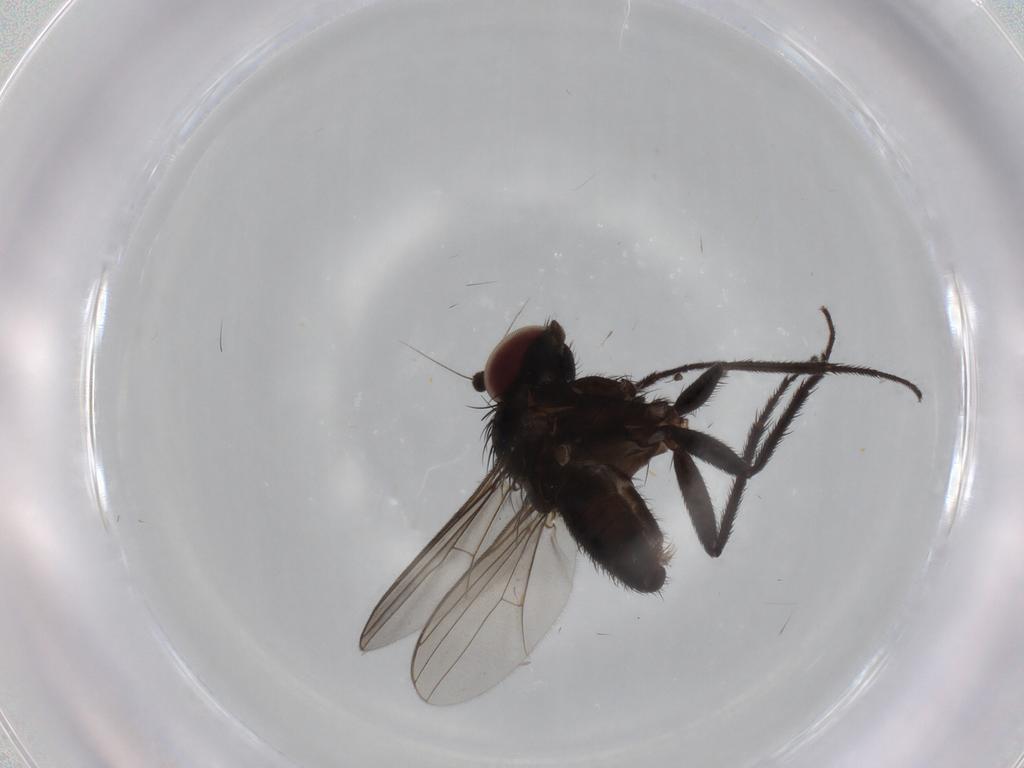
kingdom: Animalia
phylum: Arthropoda
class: Insecta
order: Diptera
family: Dolichopodidae
